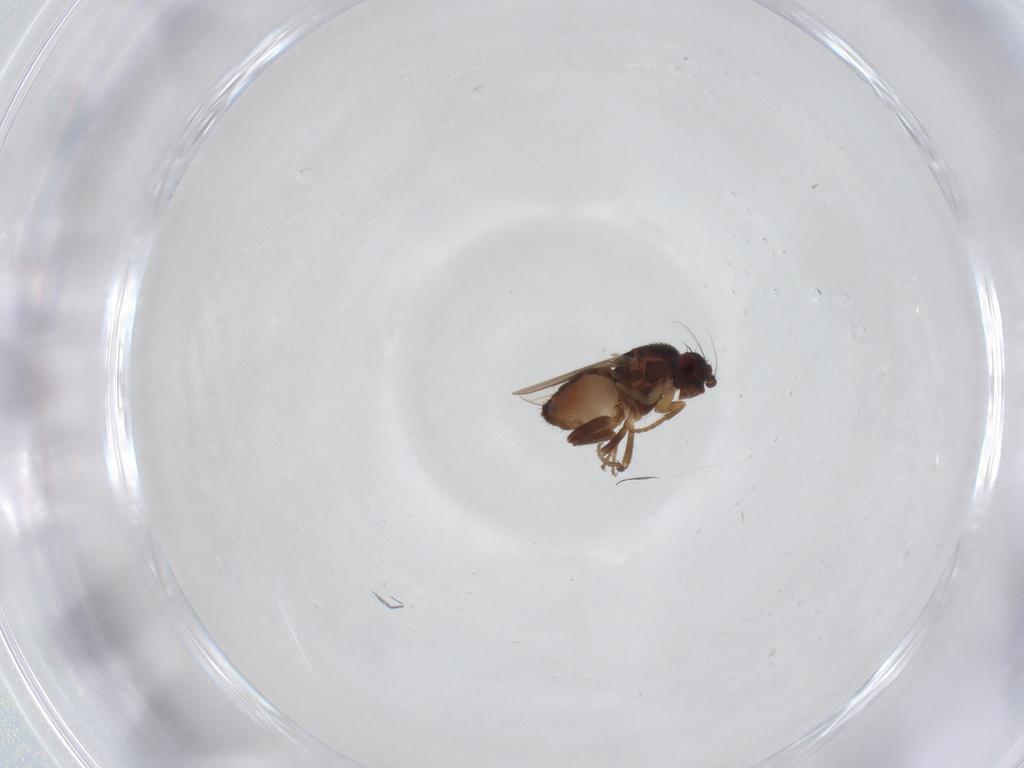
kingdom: Animalia
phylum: Arthropoda
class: Insecta
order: Diptera
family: Sphaeroceridae
